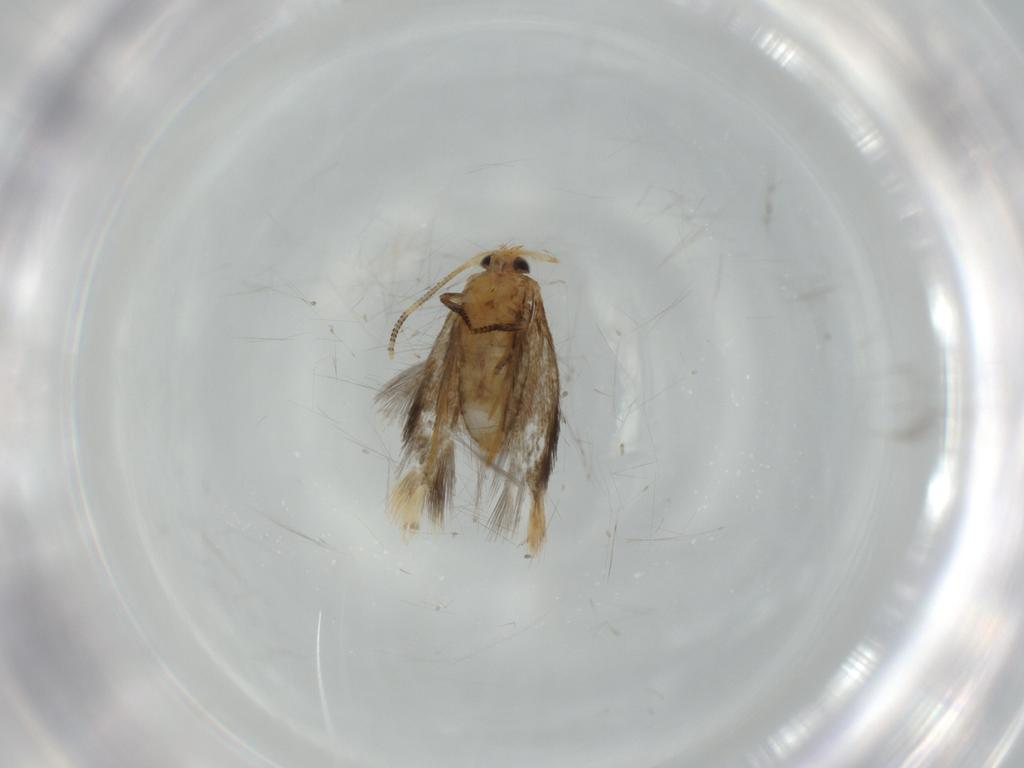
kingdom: Animalia
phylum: Arthropoda
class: Insecta
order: Lepidoptera
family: Nepticulidae
